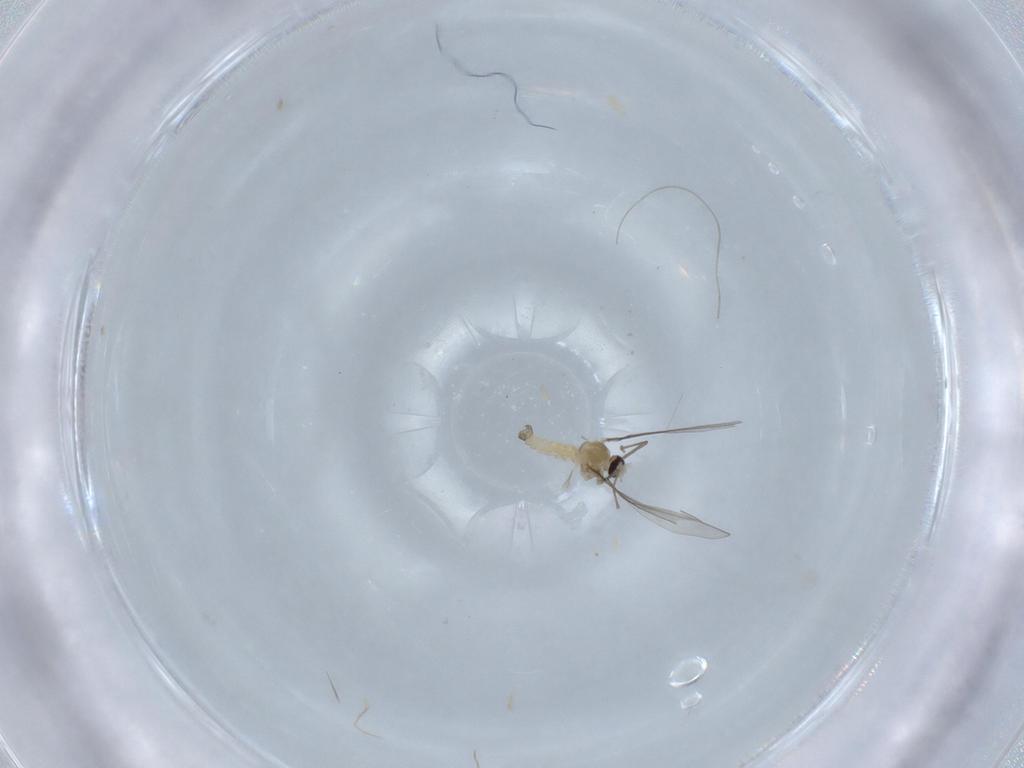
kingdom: Animalia
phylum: Arthropoda
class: Insecta
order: Diptera
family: Cecidomyiidae
